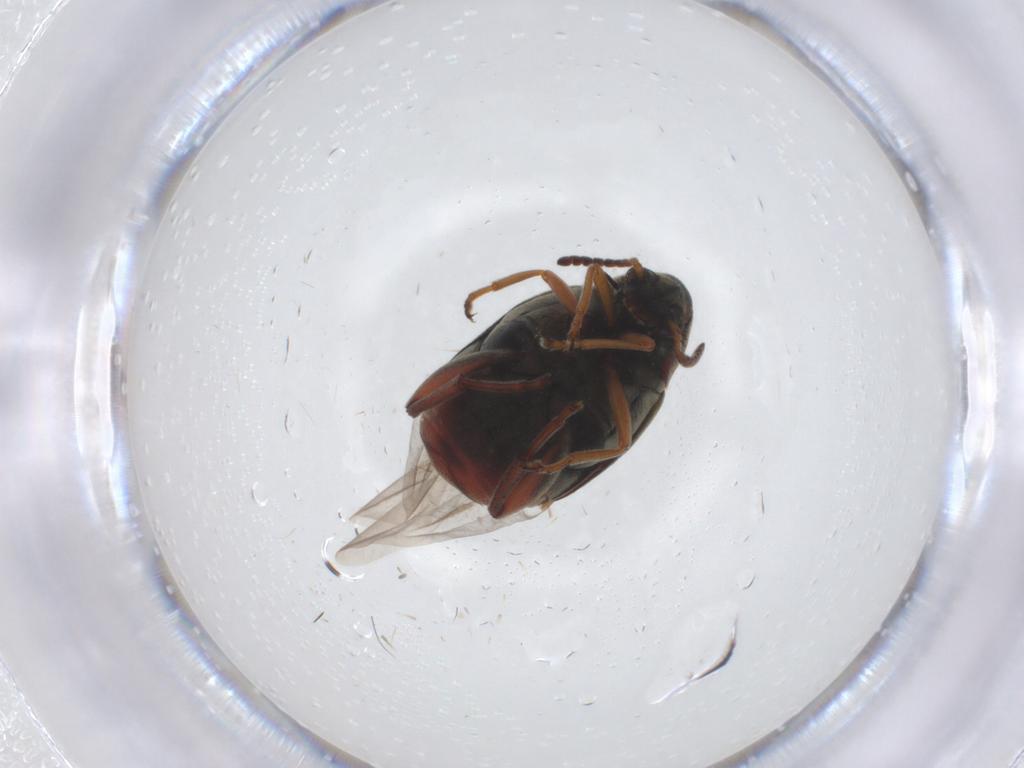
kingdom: Animalia
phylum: Arthropoda
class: Insecta
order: Coleoptera
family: Chrysomelidae
